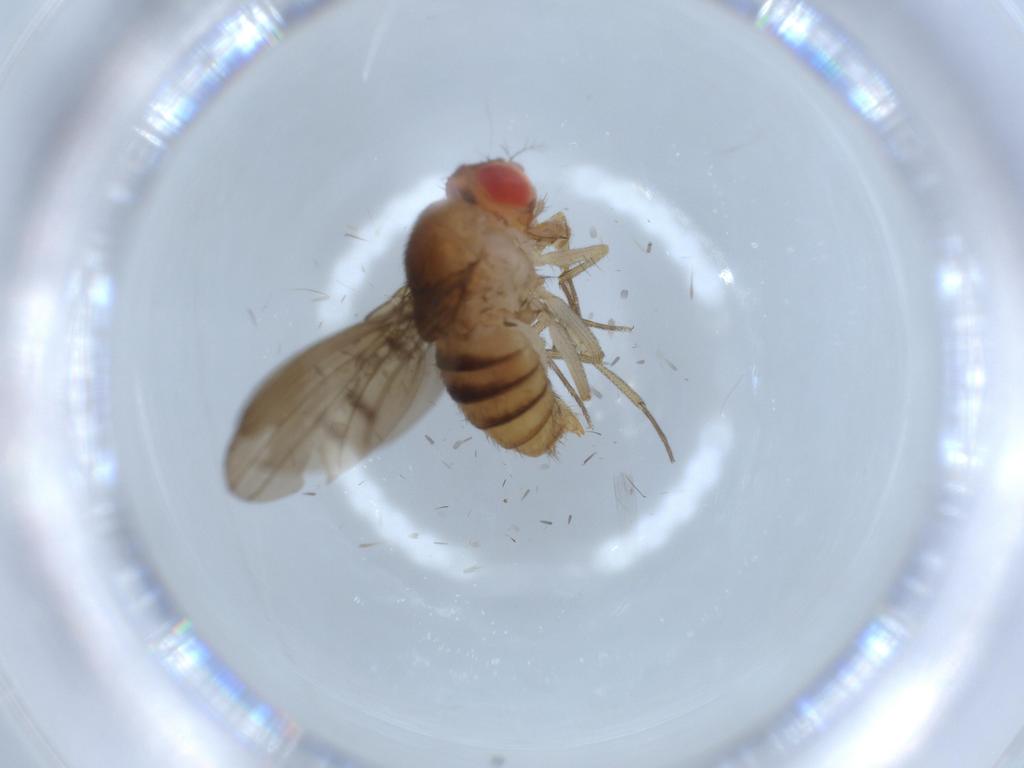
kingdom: Animalia
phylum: Arthropoda
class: Insecta
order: Diptera
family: Drosophilidae
